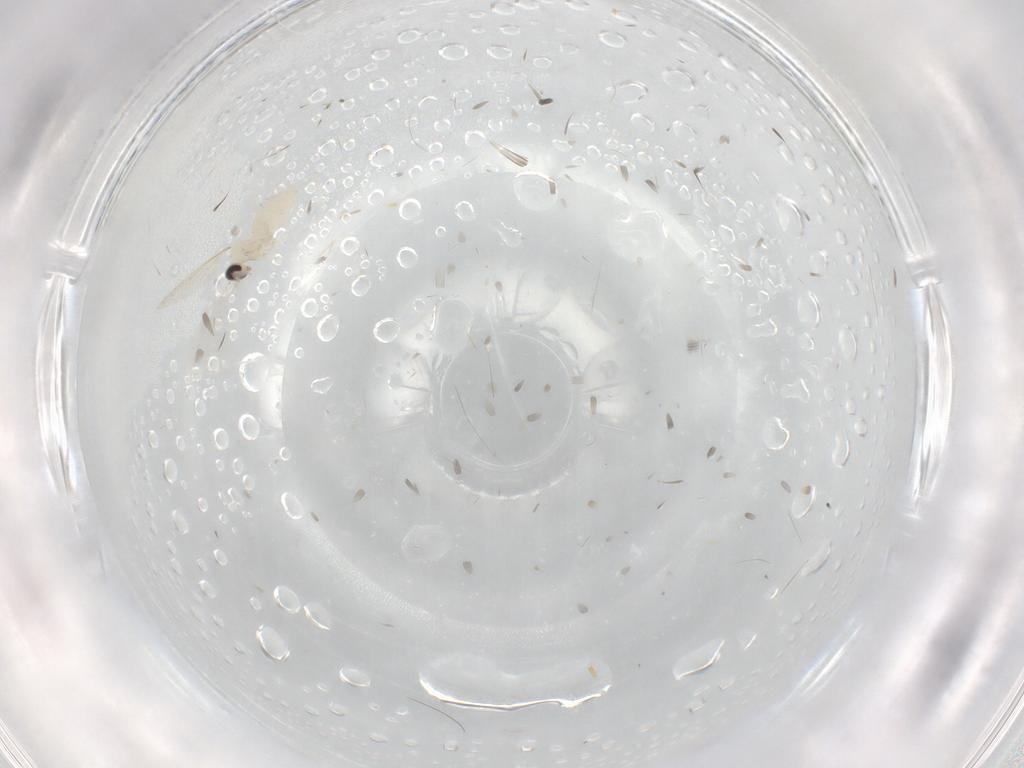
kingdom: Animalia
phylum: Arthropoda
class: Insecta
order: Diptera
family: Cecidomyiidae
